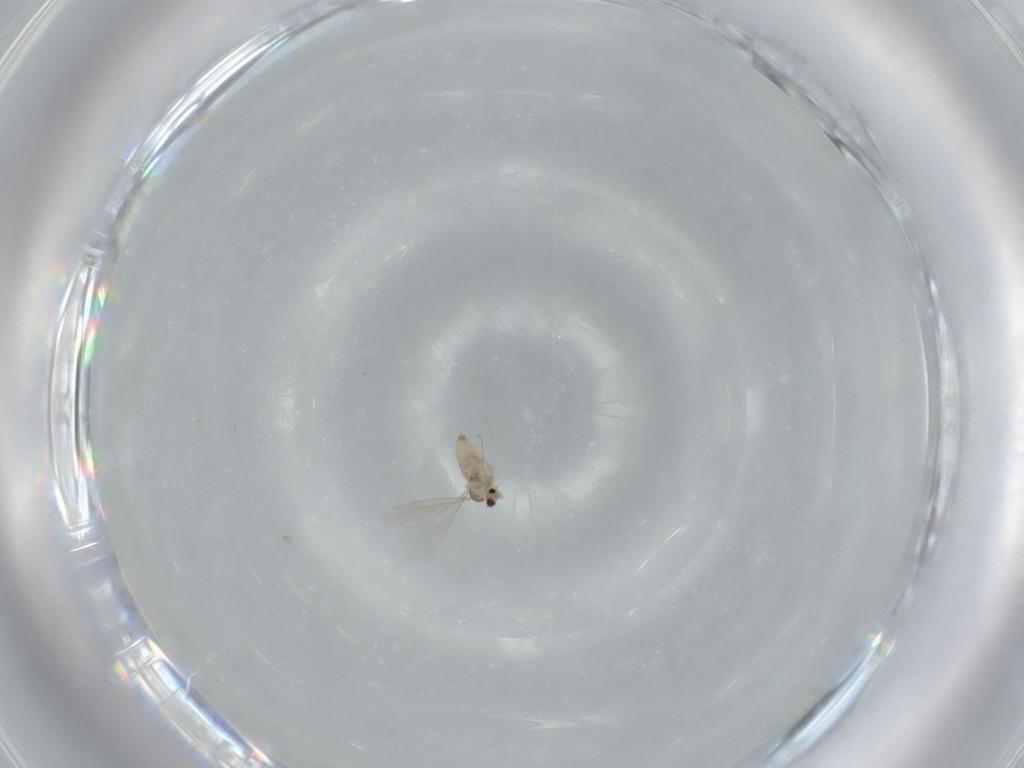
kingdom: Animalia
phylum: Arthropoda
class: Insecta
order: Diptera
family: Cecidomyiidae
